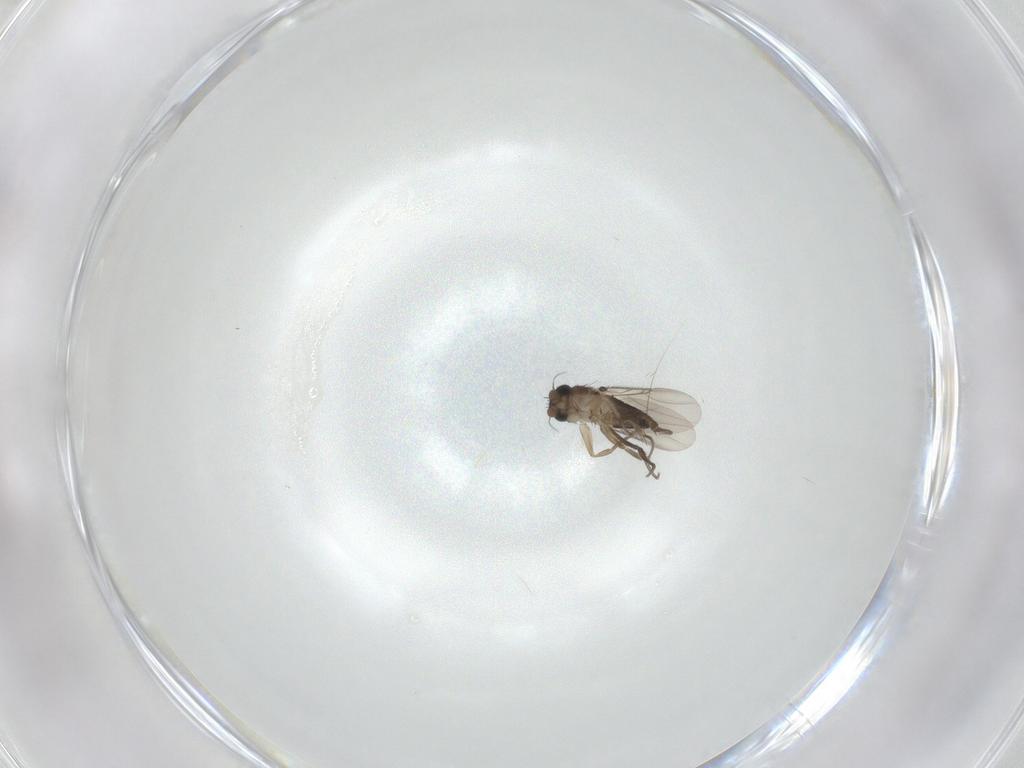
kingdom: Animalia
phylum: Arthropoda
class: Insecta
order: Diptera
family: Phoridae
